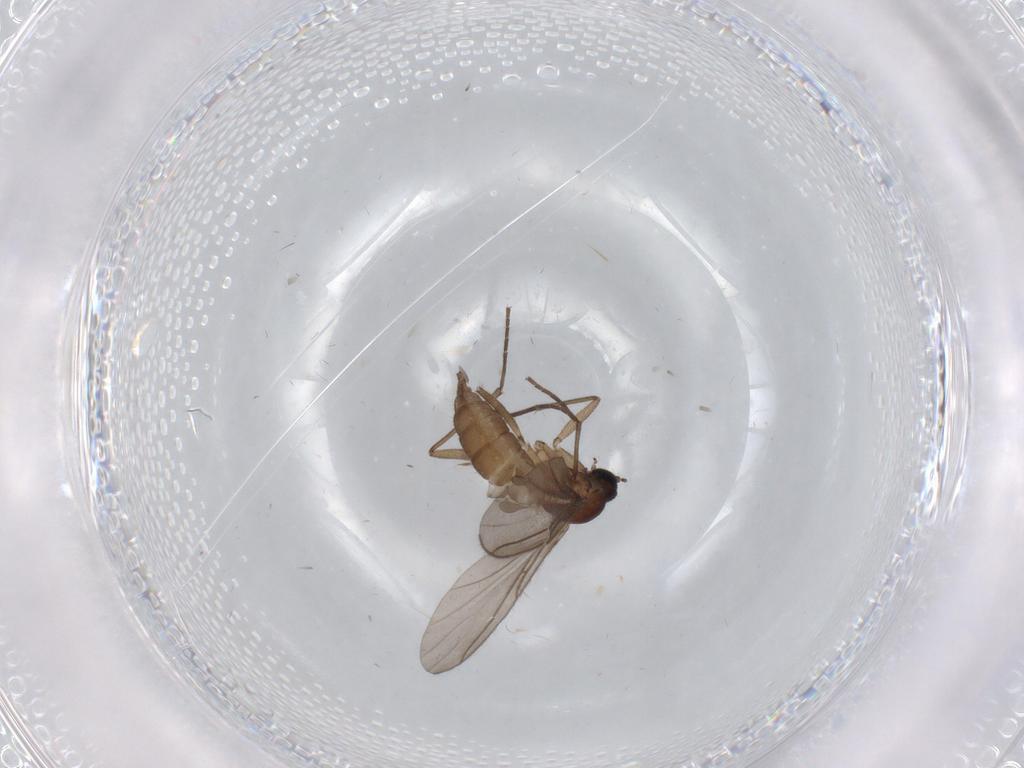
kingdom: Animalia
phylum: Arthropoda
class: Insecta
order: Diptera
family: Sciaridae
